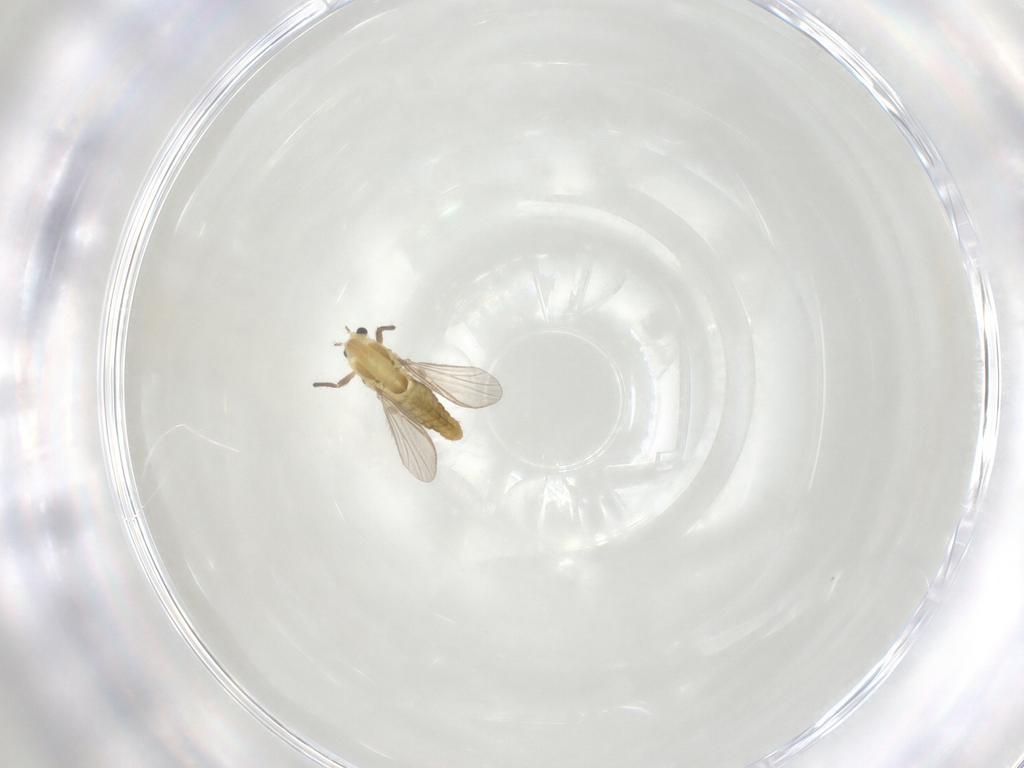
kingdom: Animalia
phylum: Arthropoda
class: Insecta
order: Diptera
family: Chironomidae
